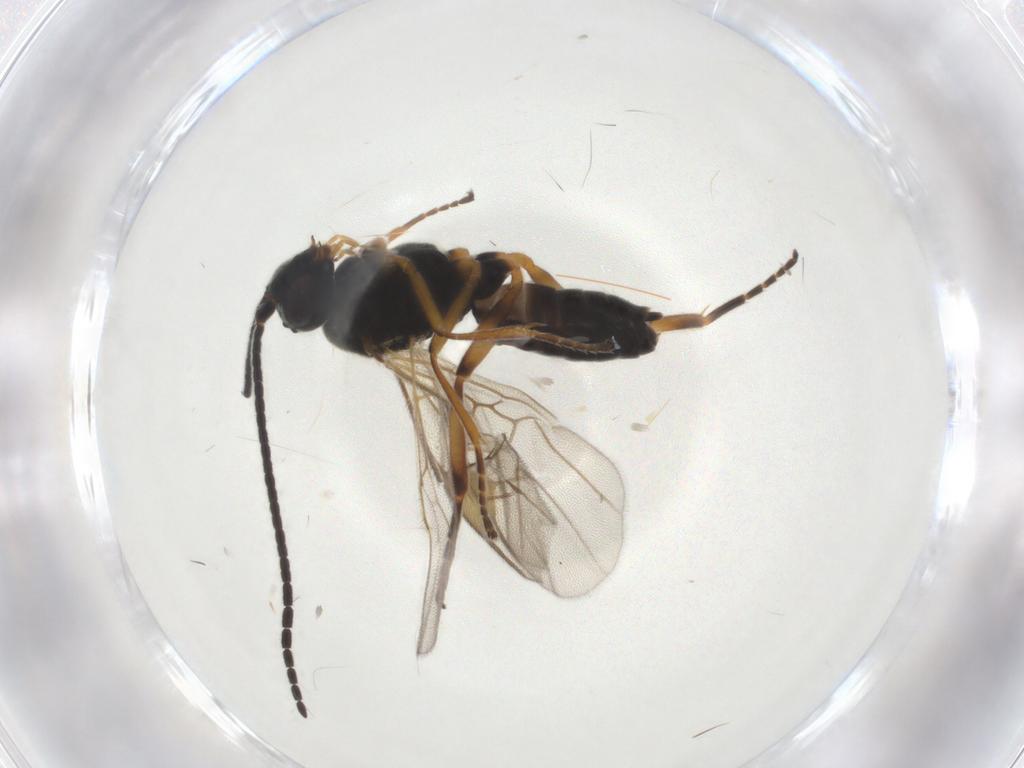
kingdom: Animalia
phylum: Arthropoda
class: Insecta
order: Hymenoptera
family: Braconidae
